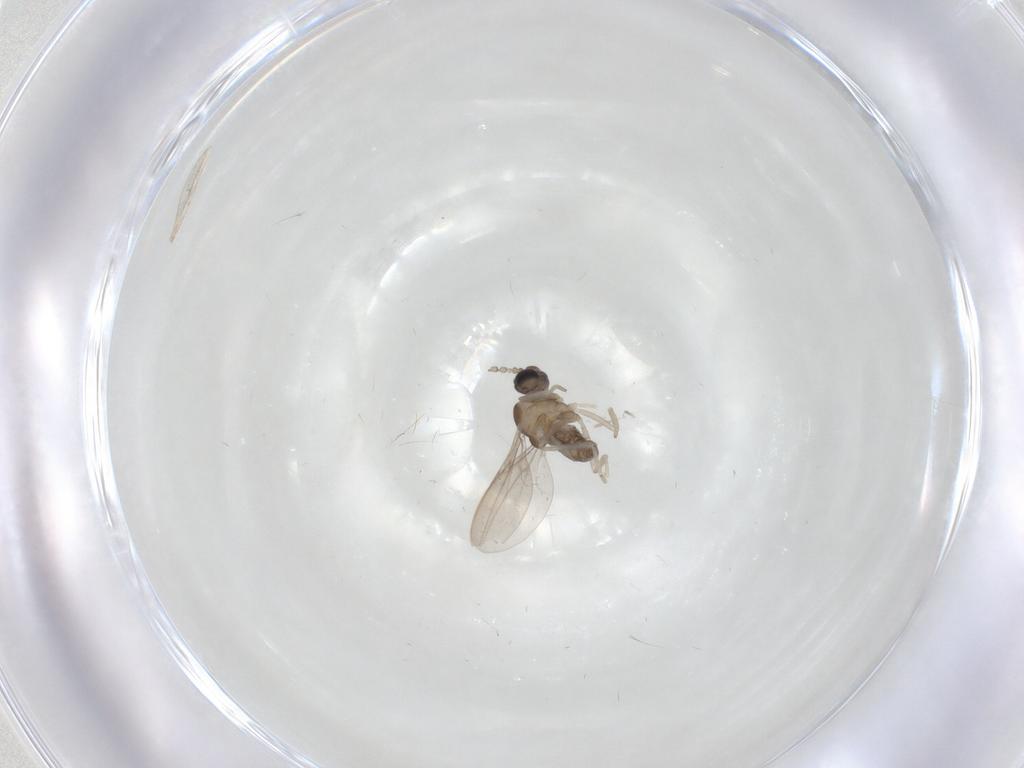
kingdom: Animalia
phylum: Arthropoda
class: Insecta
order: Diptera
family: Cecidomyiidae
